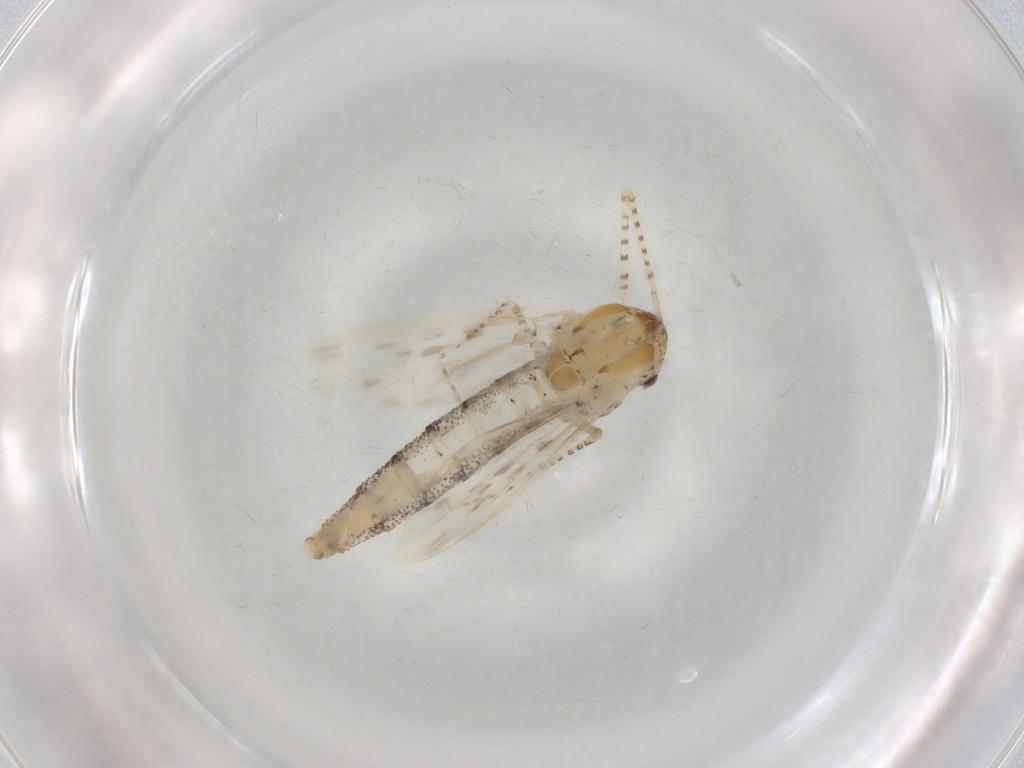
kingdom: Animalia
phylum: Arthropoda
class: Insecta
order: Diptera
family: Chaoboridae
